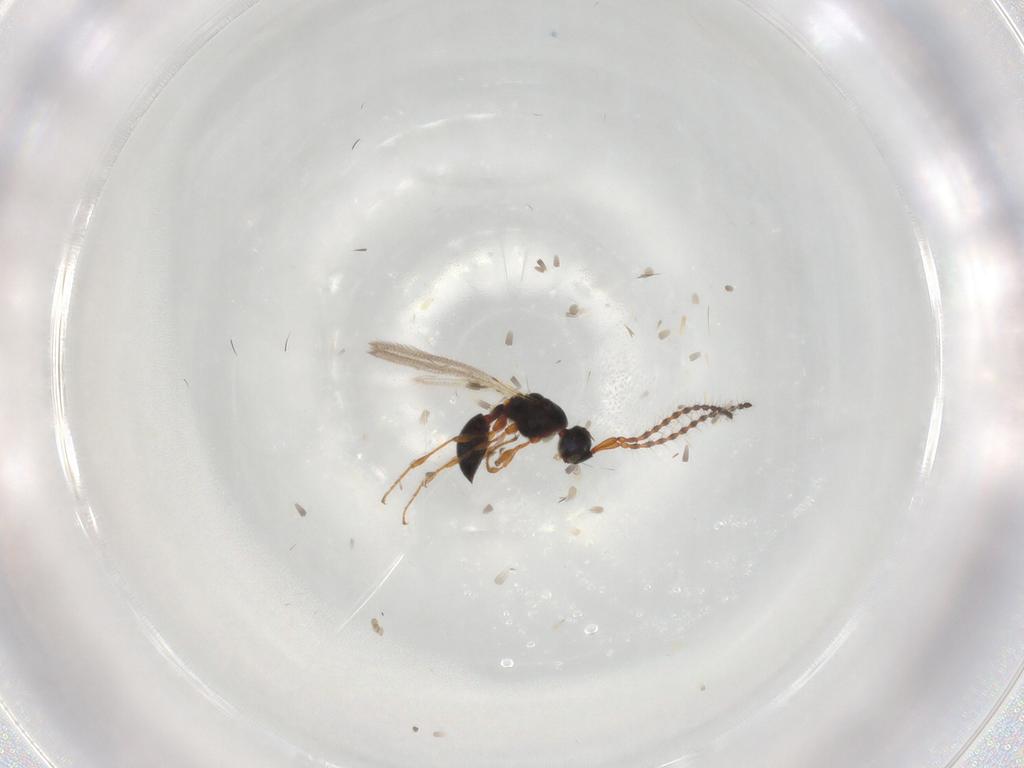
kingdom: Animalia
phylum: Arthropoda
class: Insecta
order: Hymenoptera
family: Diapriidae
